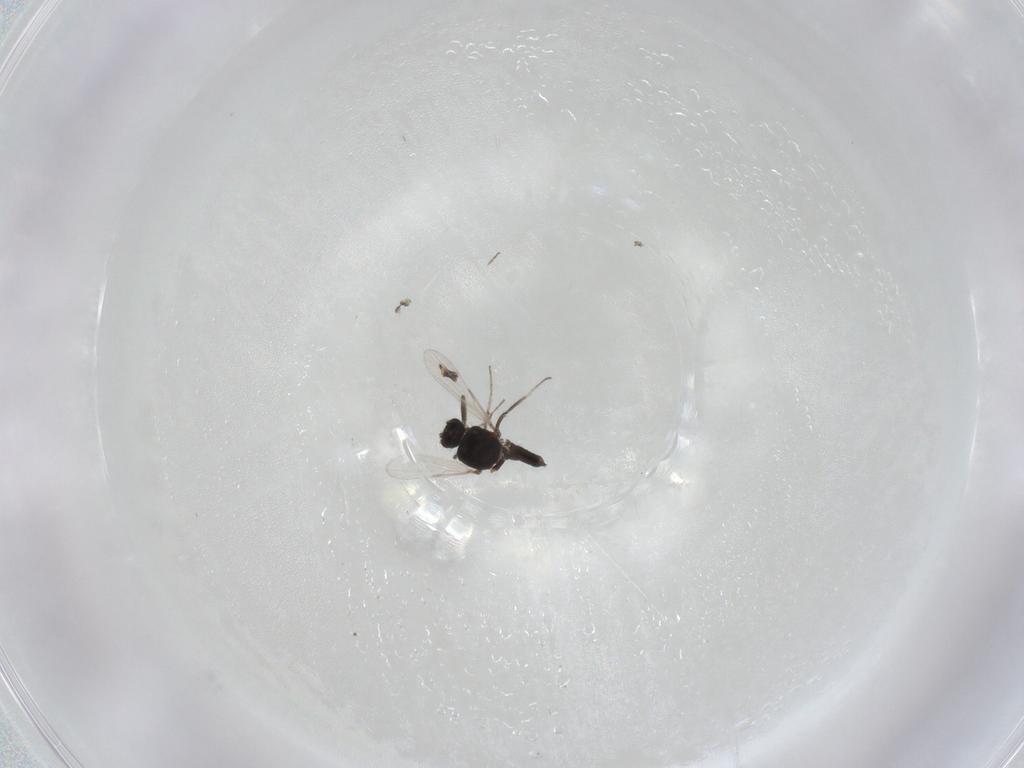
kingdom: Animalia
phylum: Arthropoda
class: Insecta
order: Diptera
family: Ceratopogonidae
